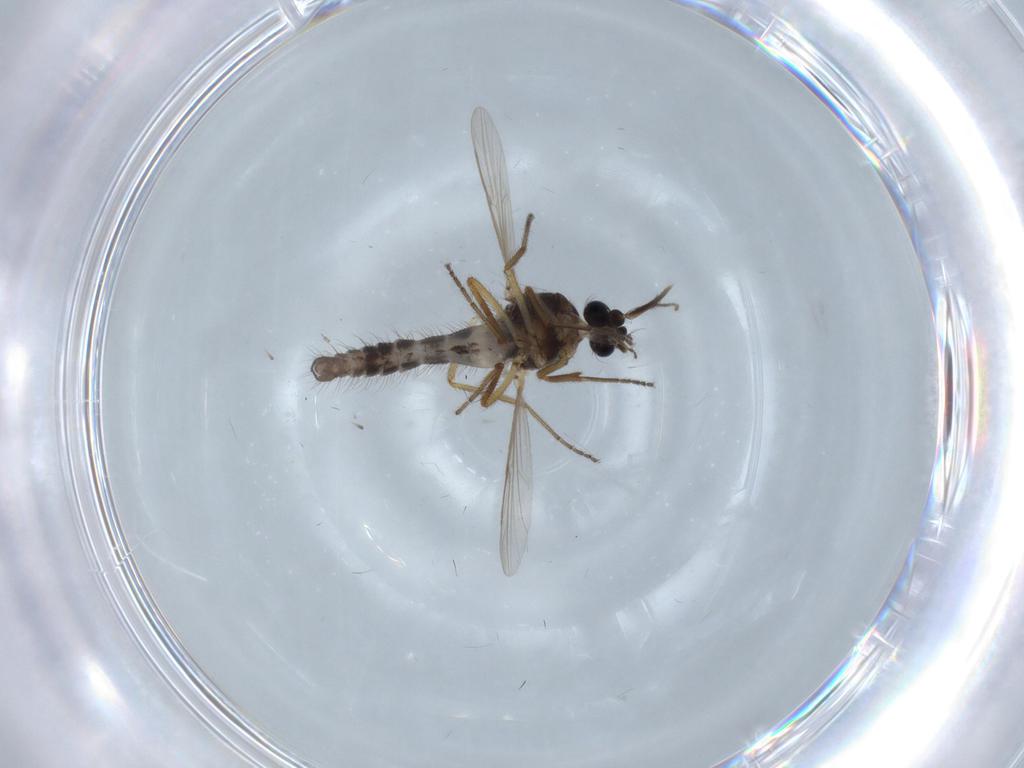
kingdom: Animalia
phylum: Arthropoda
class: Insecta
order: Diptera
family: Ceratopogonidae
